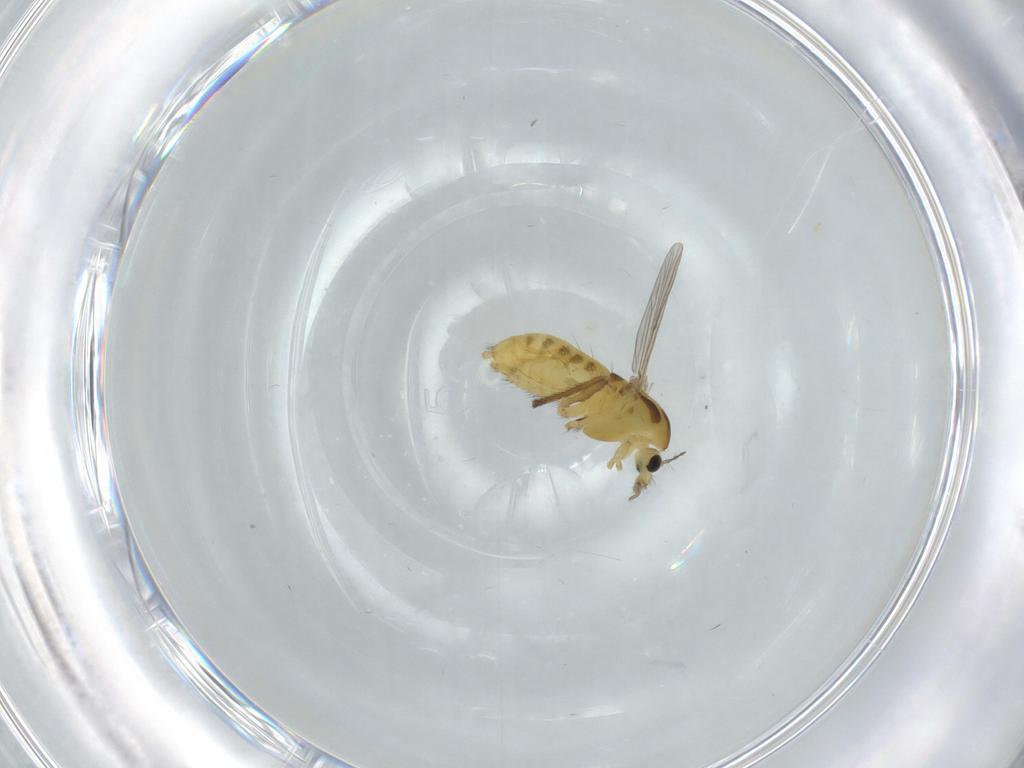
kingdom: Animalia
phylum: Arthropoda
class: Insecta
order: Diptera
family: Chironomidae
